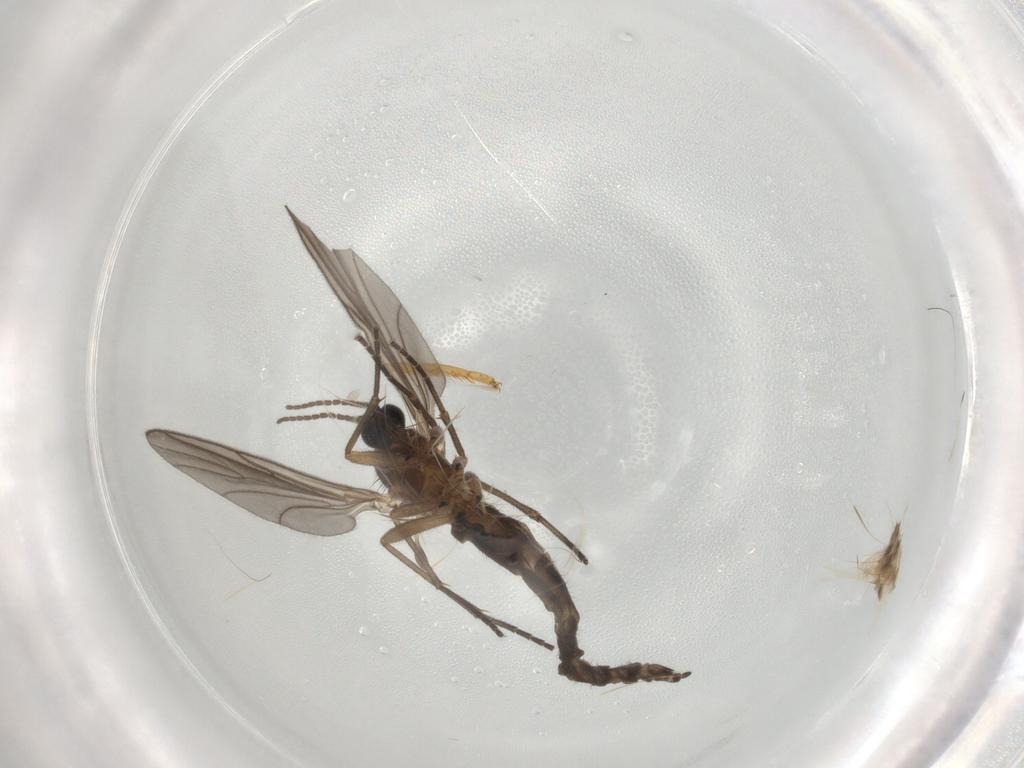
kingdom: Animalia
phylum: Arthropoda
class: Insecta
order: Diptera
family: Sciaridae
